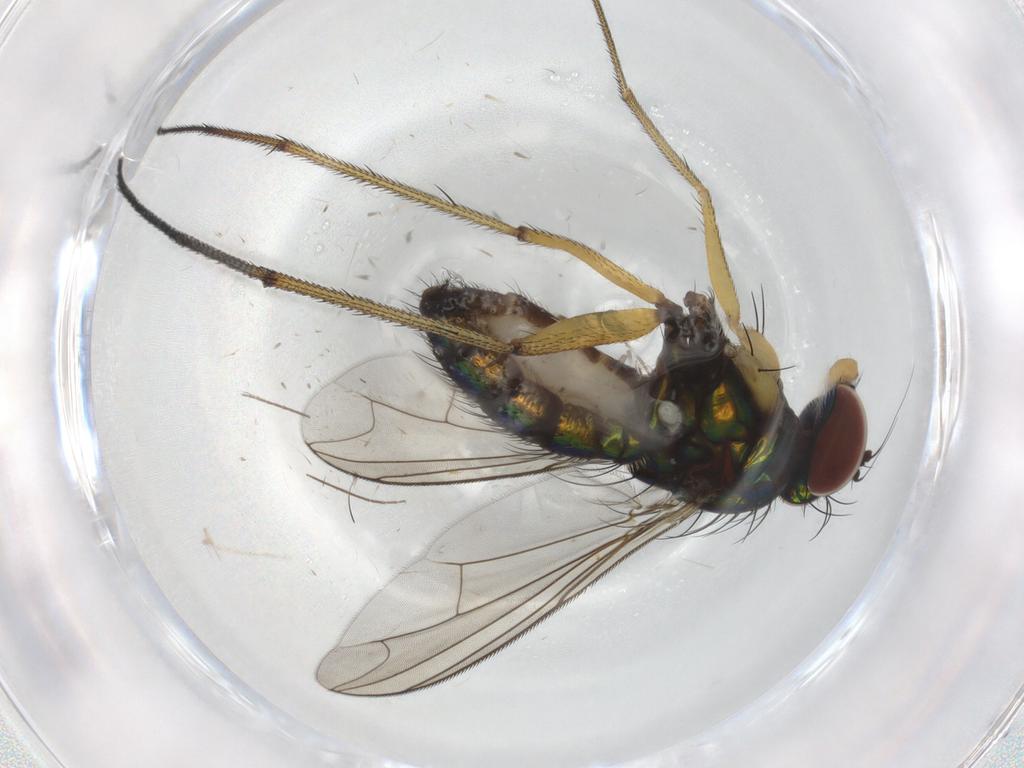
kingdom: Animalia
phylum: Arthropoda
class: Insecta
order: Diptera
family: Dolichopodidae
